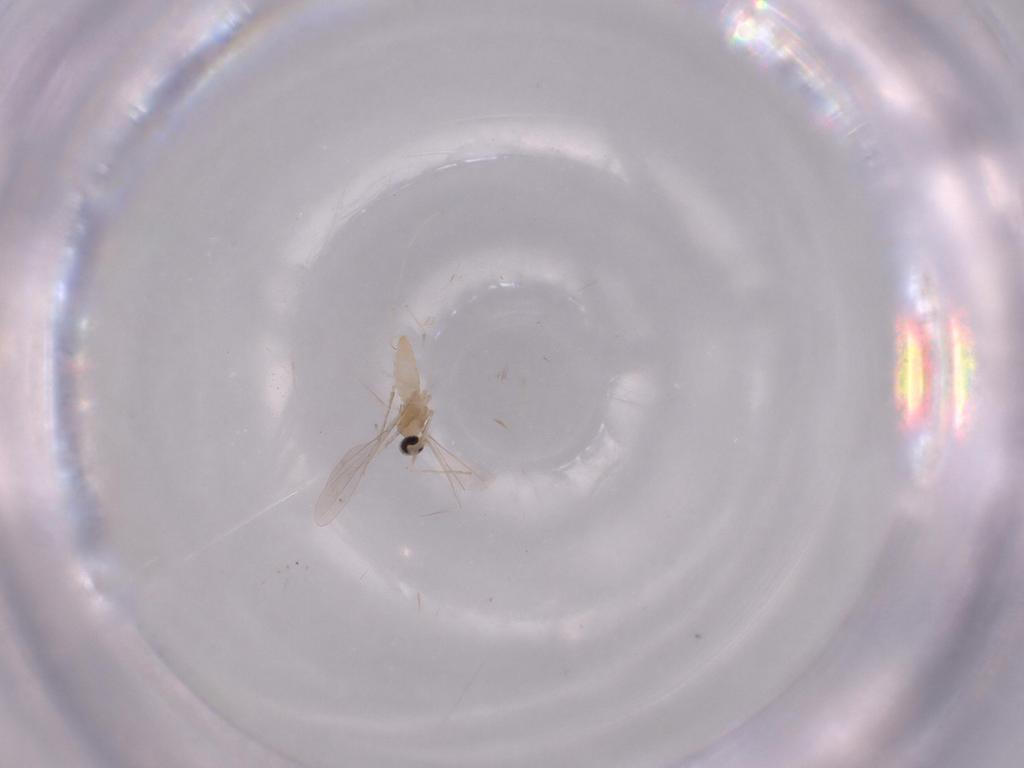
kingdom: Animalia
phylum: Arthropoda
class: Insecta
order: Diptera
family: Cecidomyiidae
